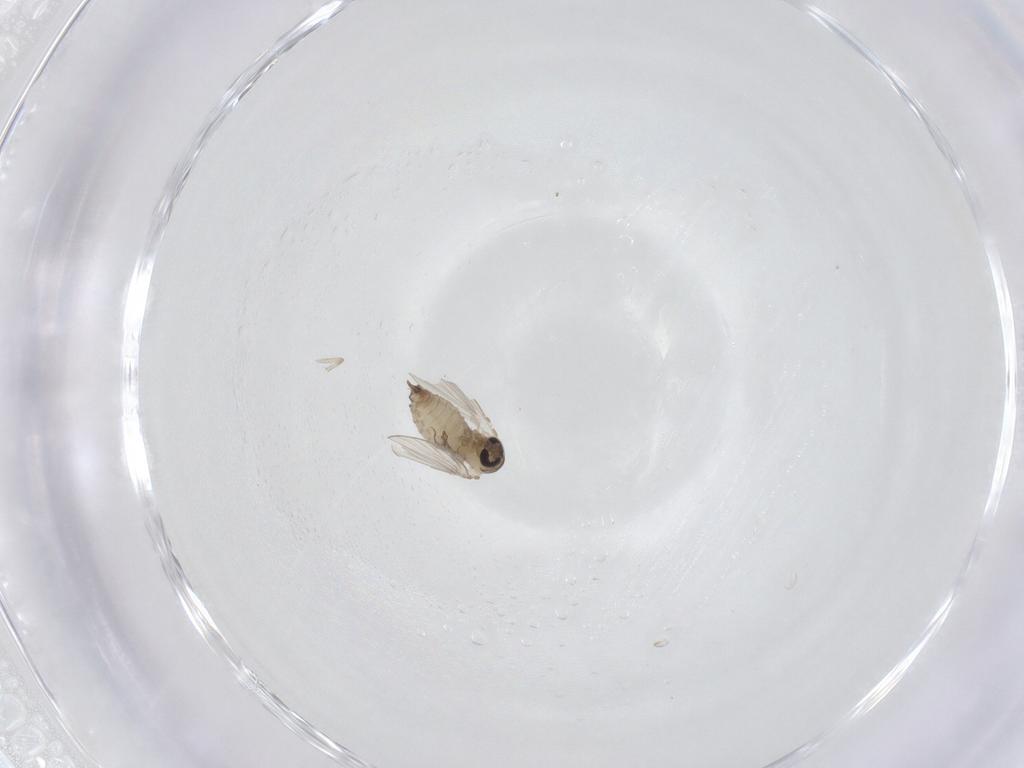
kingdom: Animalia
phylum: Arthropoda
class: Insecta
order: Diptera
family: Psychodidae
